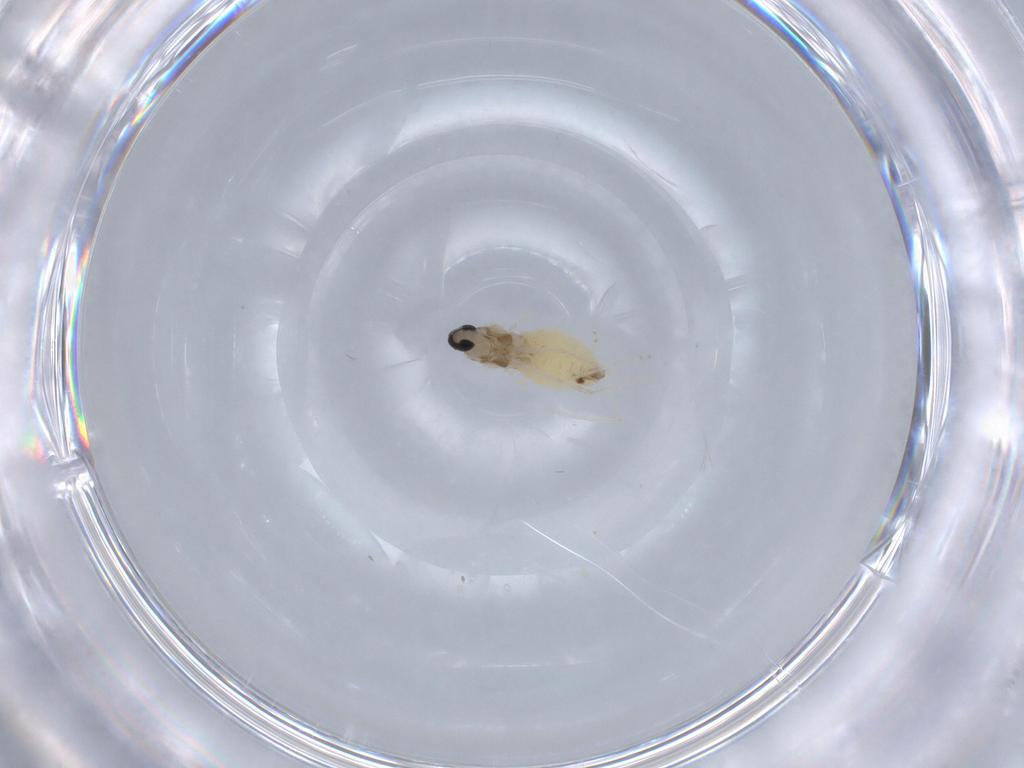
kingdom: Animalia
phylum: Arthropoda
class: Insecta
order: Diptera
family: Cecidomyiidae
